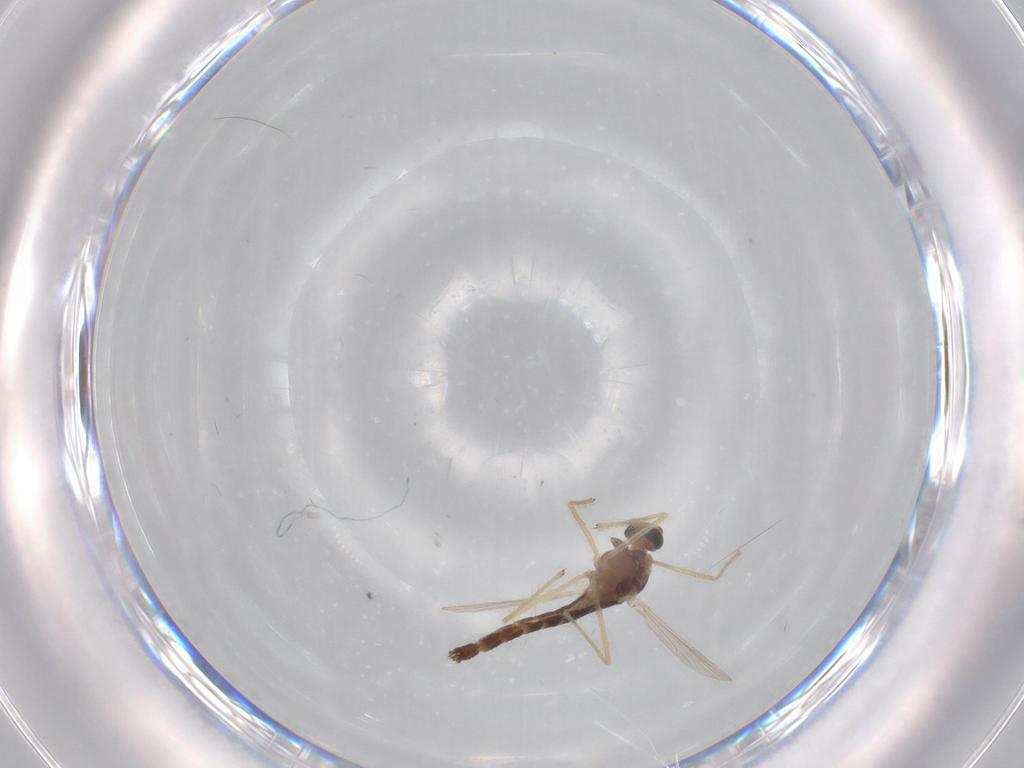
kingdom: Animalia
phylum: Arthropoda
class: Insecta
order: Diptera
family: Chironomidae
